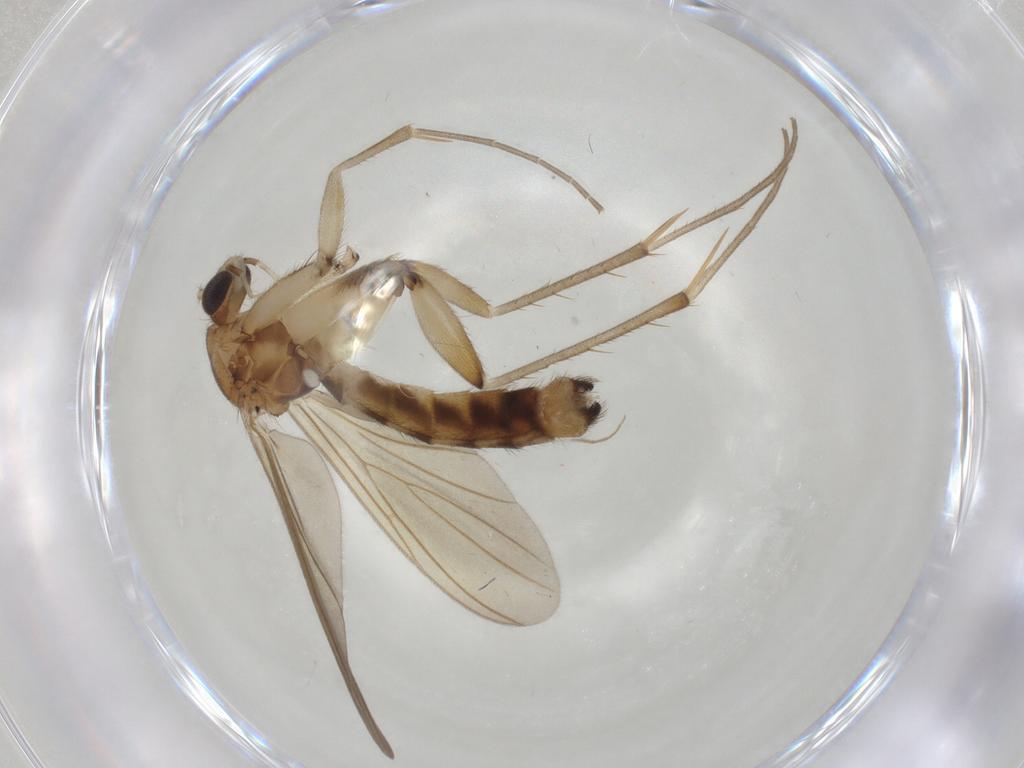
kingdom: Animalia
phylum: Arthropoda
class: Insecta
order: Diptera
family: Mycetophilidae
